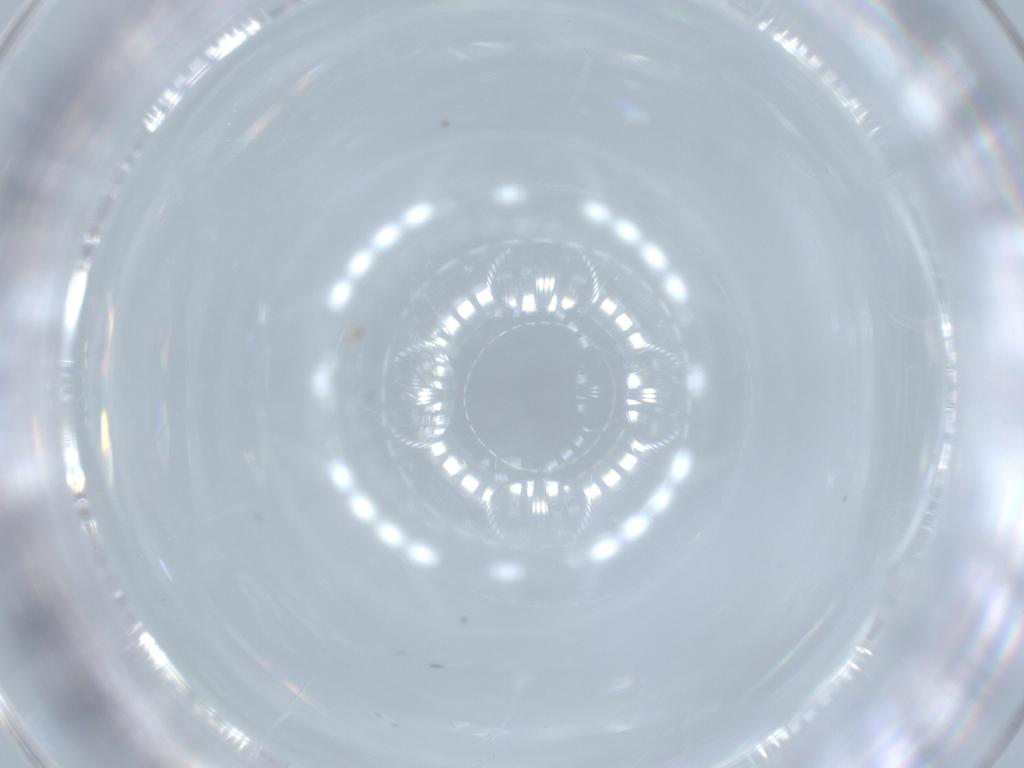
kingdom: Animalia
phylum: Arthropoda
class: Insecta
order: Thysanoptera
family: Thripidae
